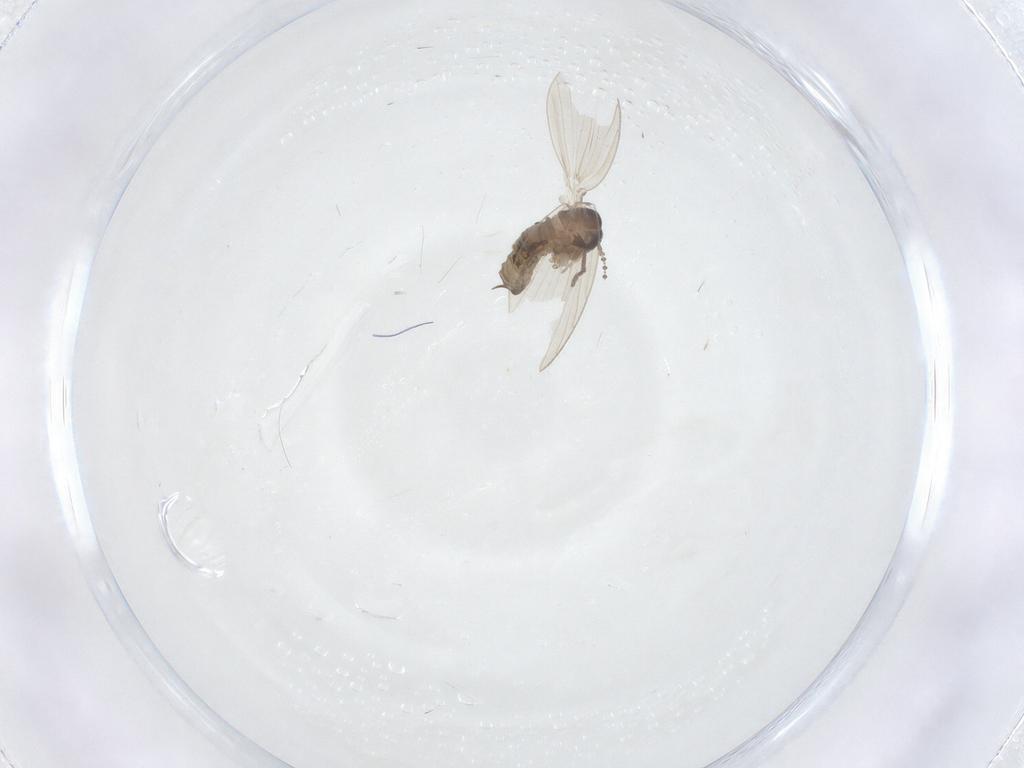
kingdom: Animalia
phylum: Arthropoda
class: Insecta
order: Diptera
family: Psychodidae
